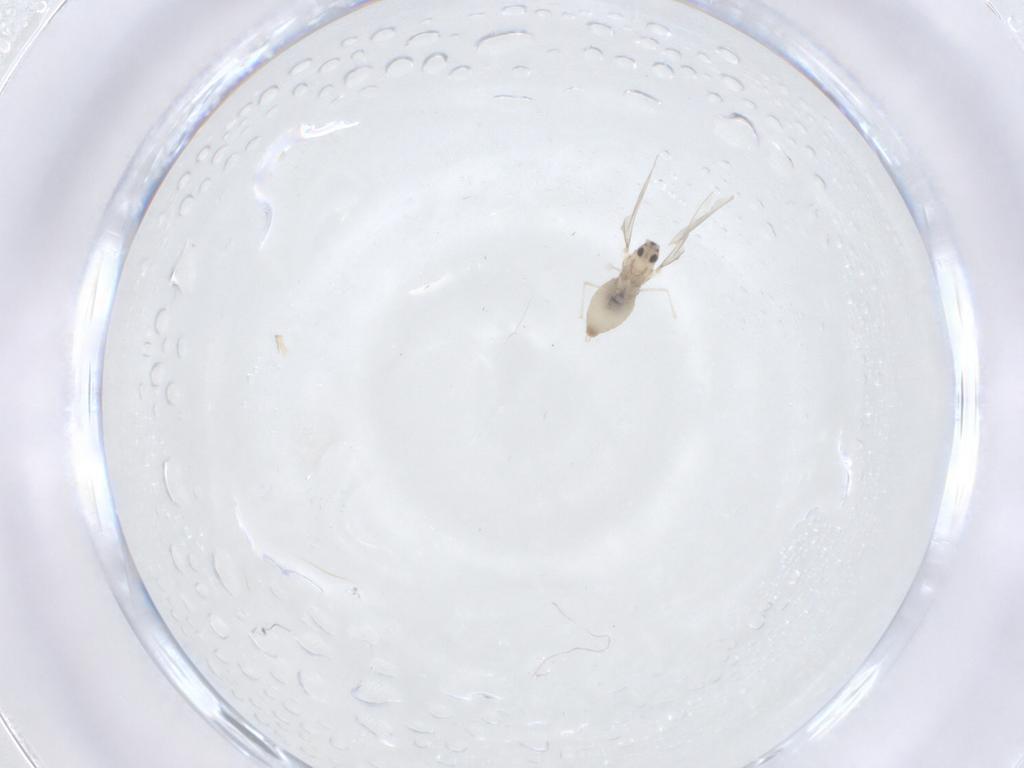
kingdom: Animalia
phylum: Arthropoda
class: Insecta
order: Diptera
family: Cecidomyiidae
